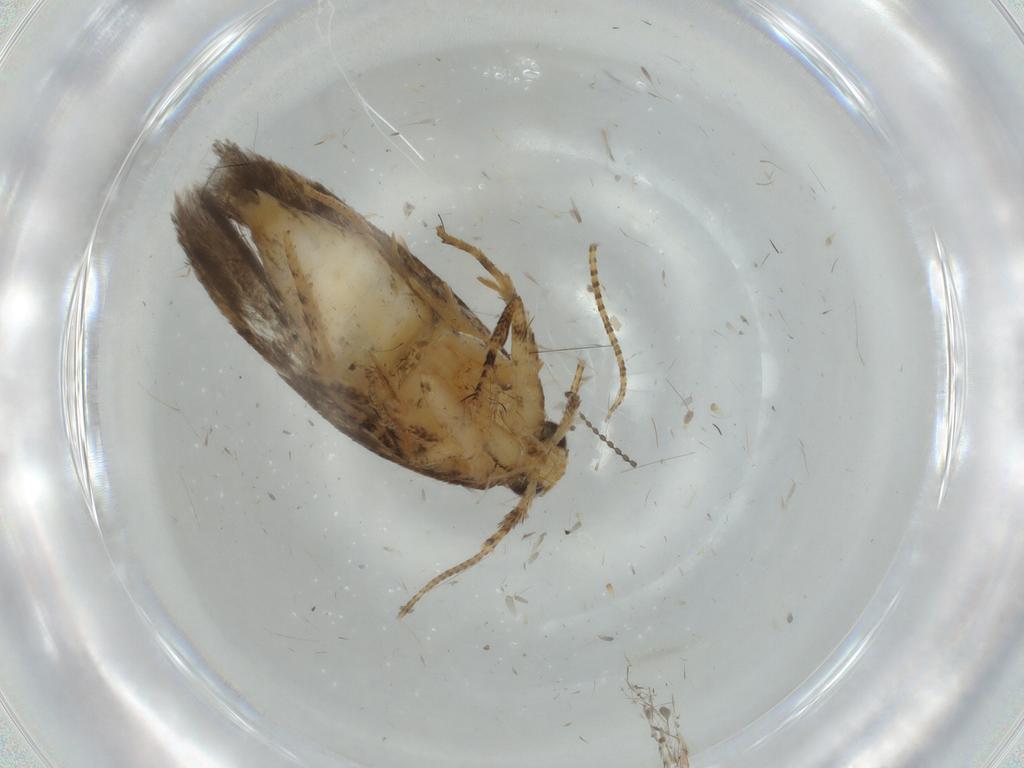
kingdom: Animalia
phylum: Arthropoda
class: Insecta
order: Lepidoptera
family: Gelechiidae
